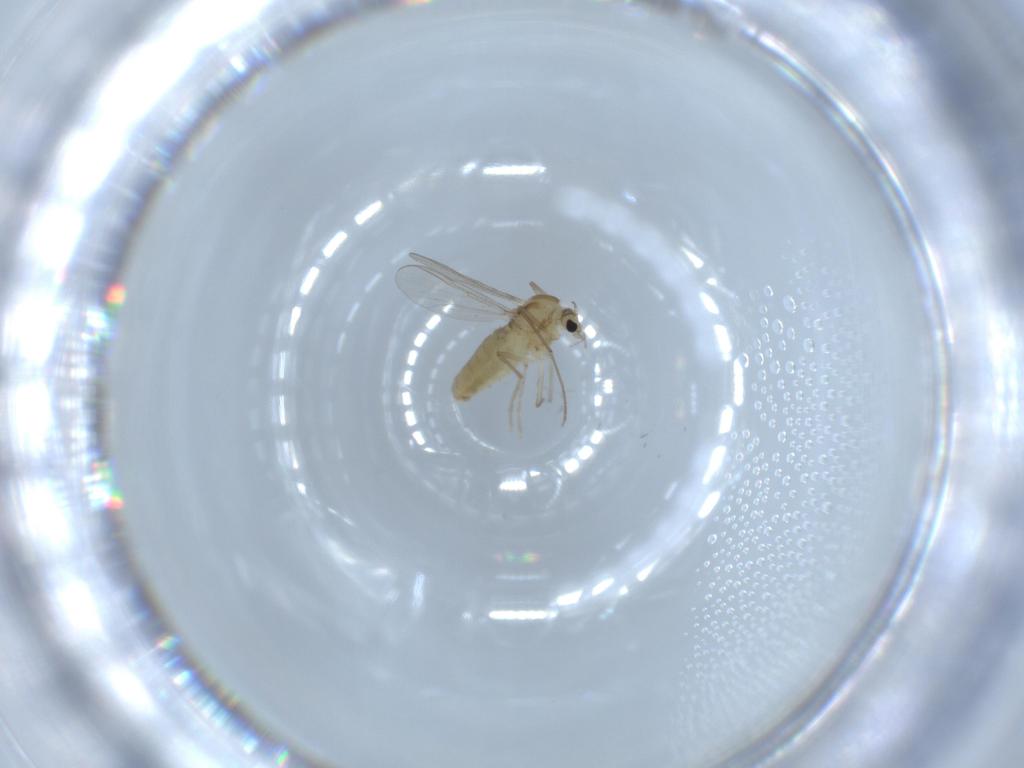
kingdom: Animalia
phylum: Arthropoda
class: Insecta
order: Diptera
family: Chironomidae
